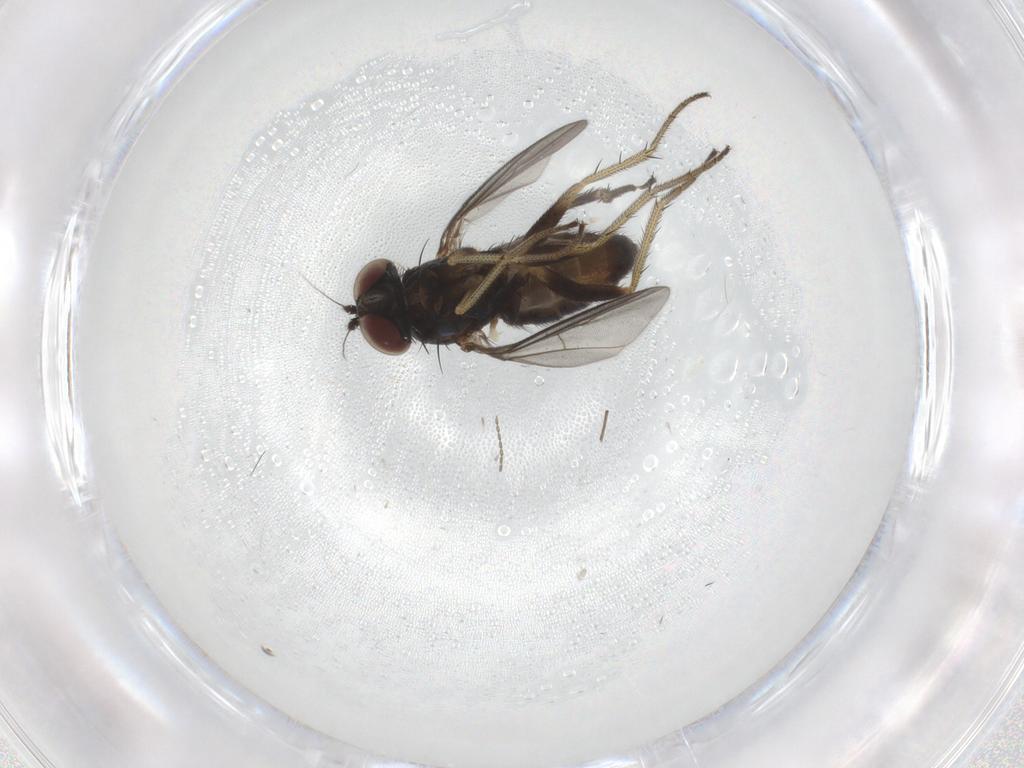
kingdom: Animalia
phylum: Arthropoda
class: Insecta
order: Diptera
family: Dolichopodidae
